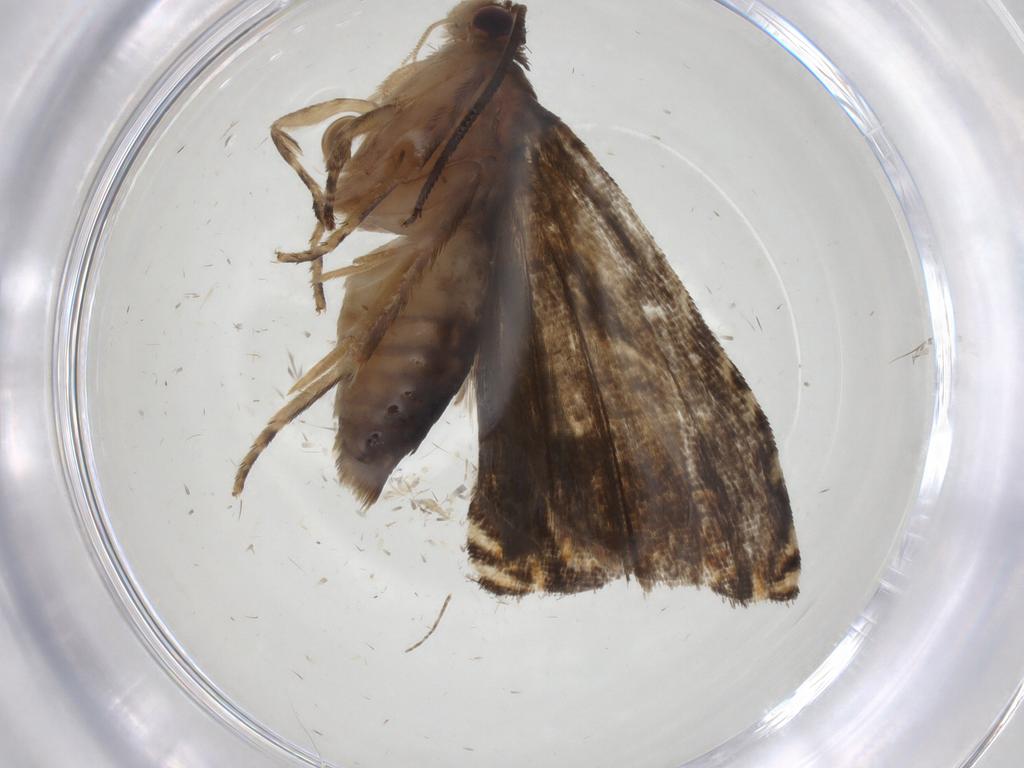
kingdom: Animalia
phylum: Arthropoda
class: Insecta
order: Lepidoptera
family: Tortricidae
